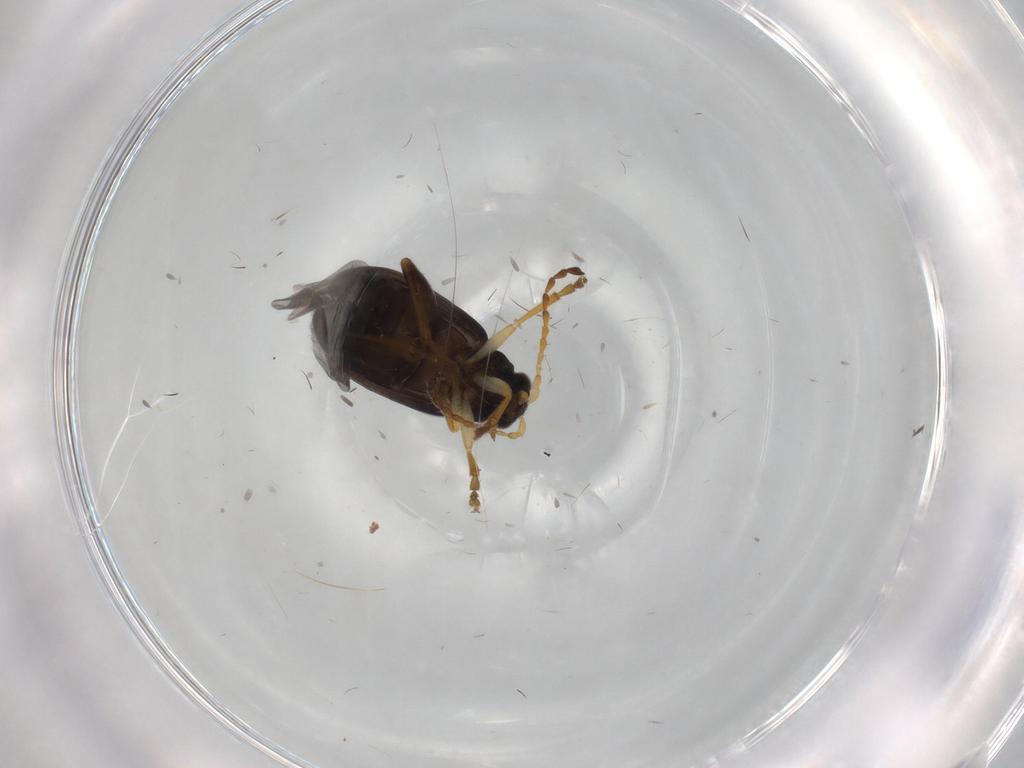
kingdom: Animalia
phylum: Arthropoda
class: Insecta
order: Coleoptera
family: Chrysomelidae
